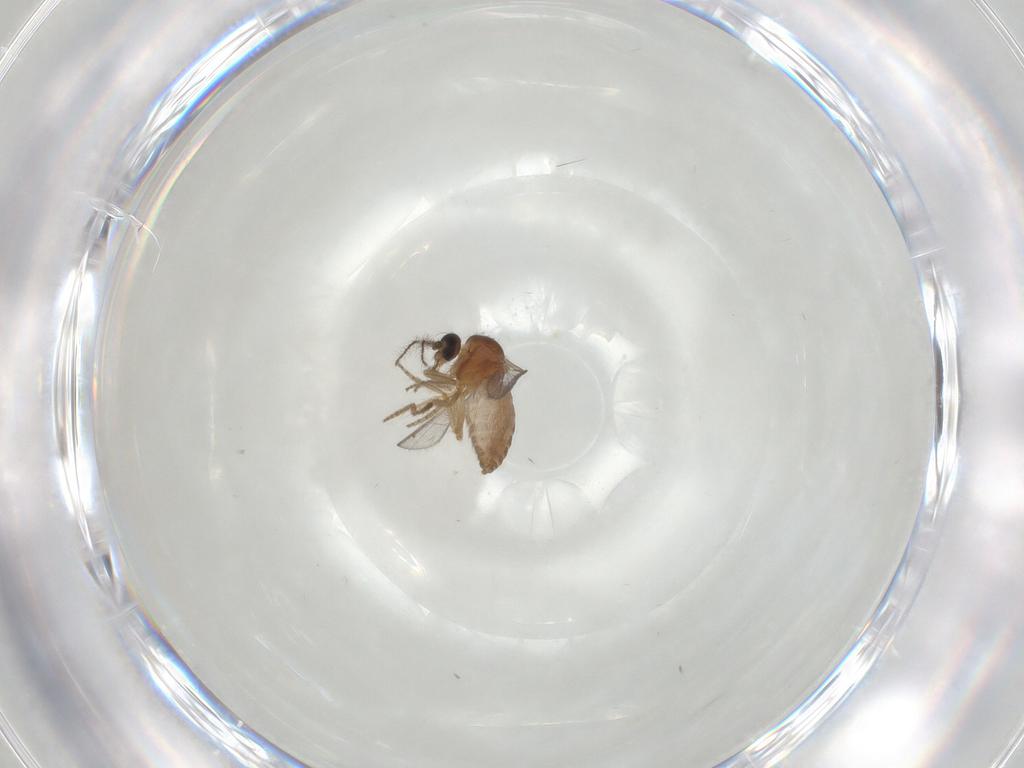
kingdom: Animalia
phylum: Arthropoda
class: Insecta
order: Diptera
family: Ceratopogonidae
